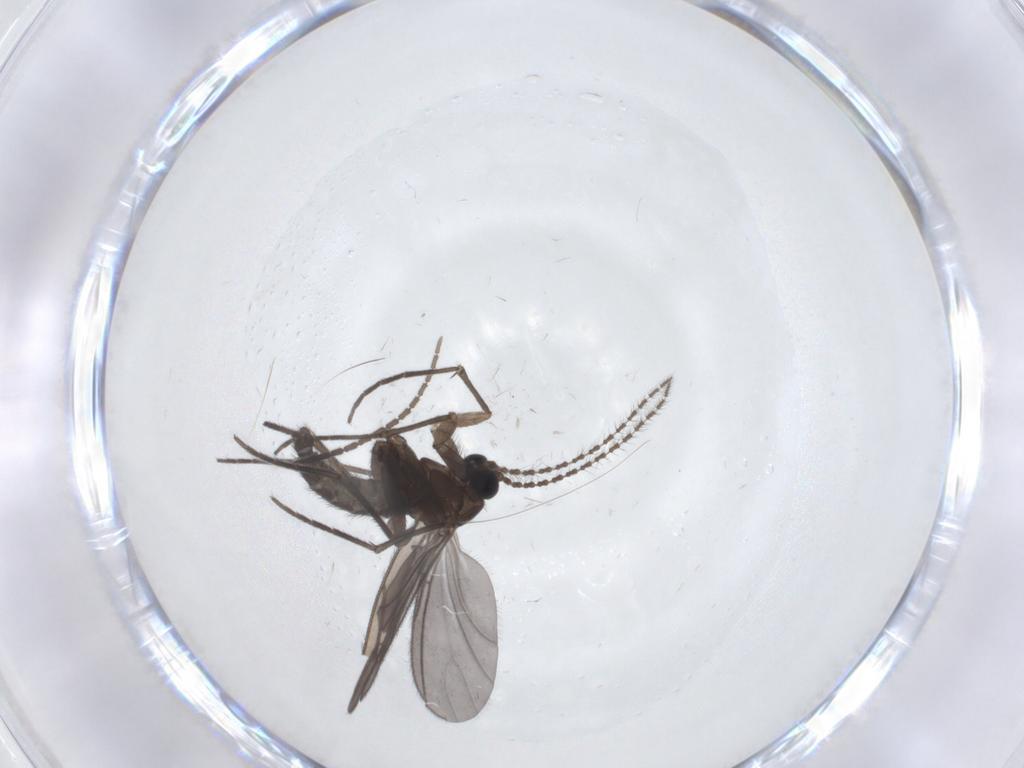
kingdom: Animalia
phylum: Arthropoda
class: Insecta
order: Diptera
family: Sciaridae
